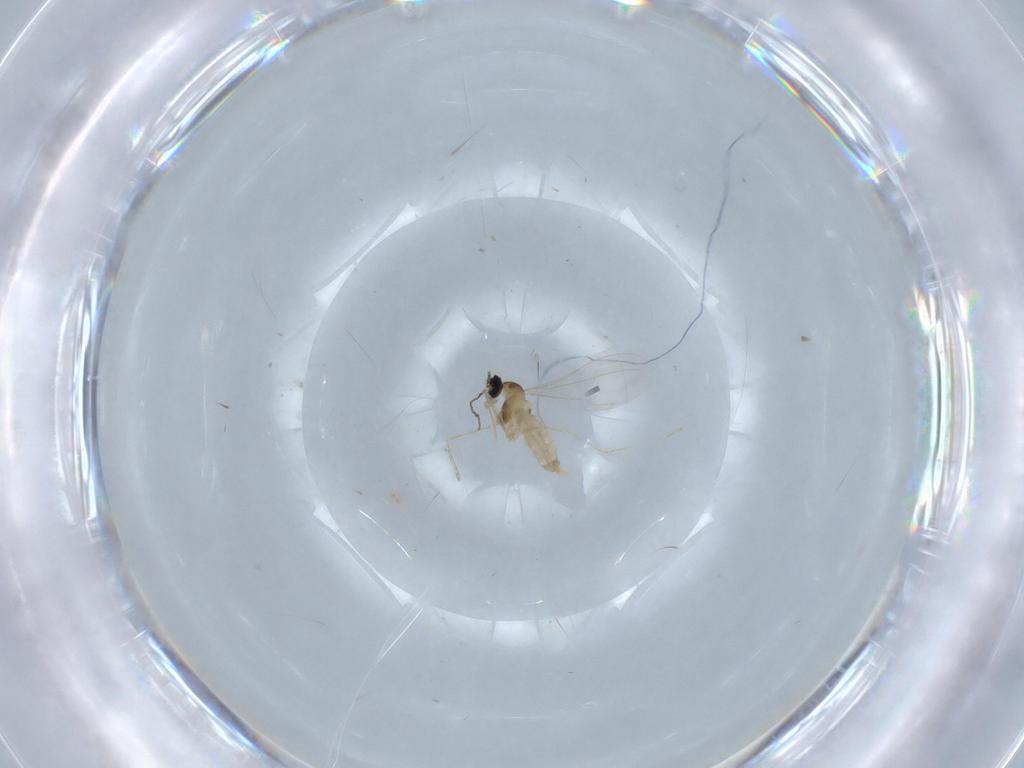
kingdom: Animalia
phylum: Arthropoda
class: Insecta
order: Diptera
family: Cecidomyiidae
